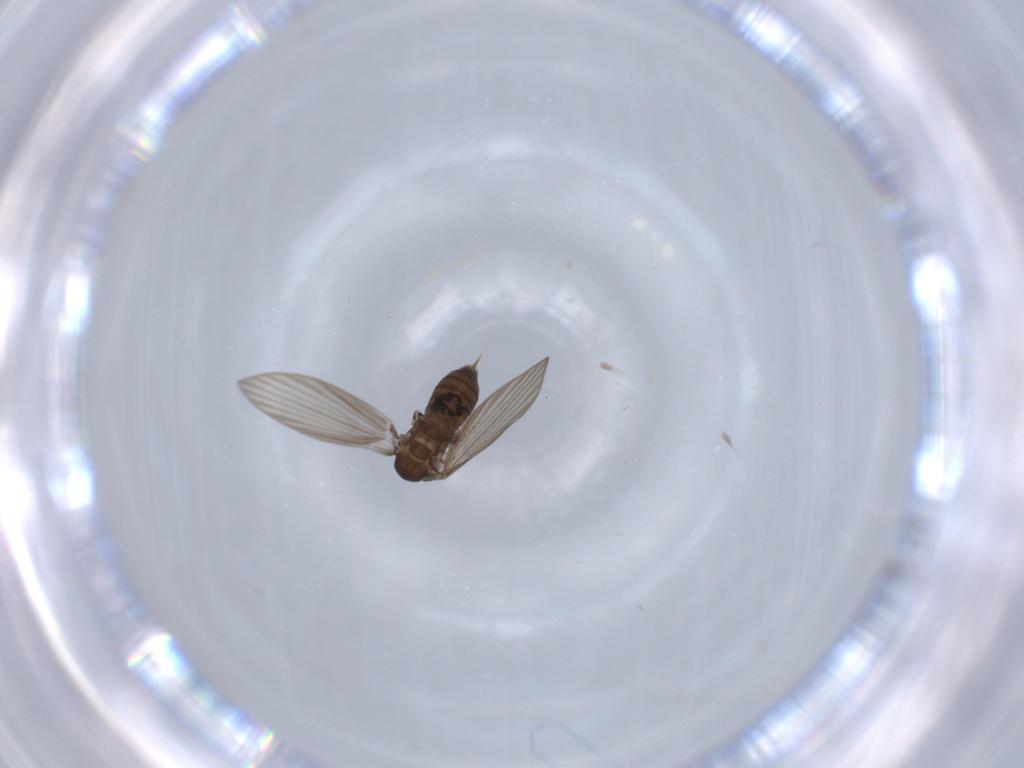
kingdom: Animalia
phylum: Arthropoda
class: Insecta
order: Diptera
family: Psychodidae
